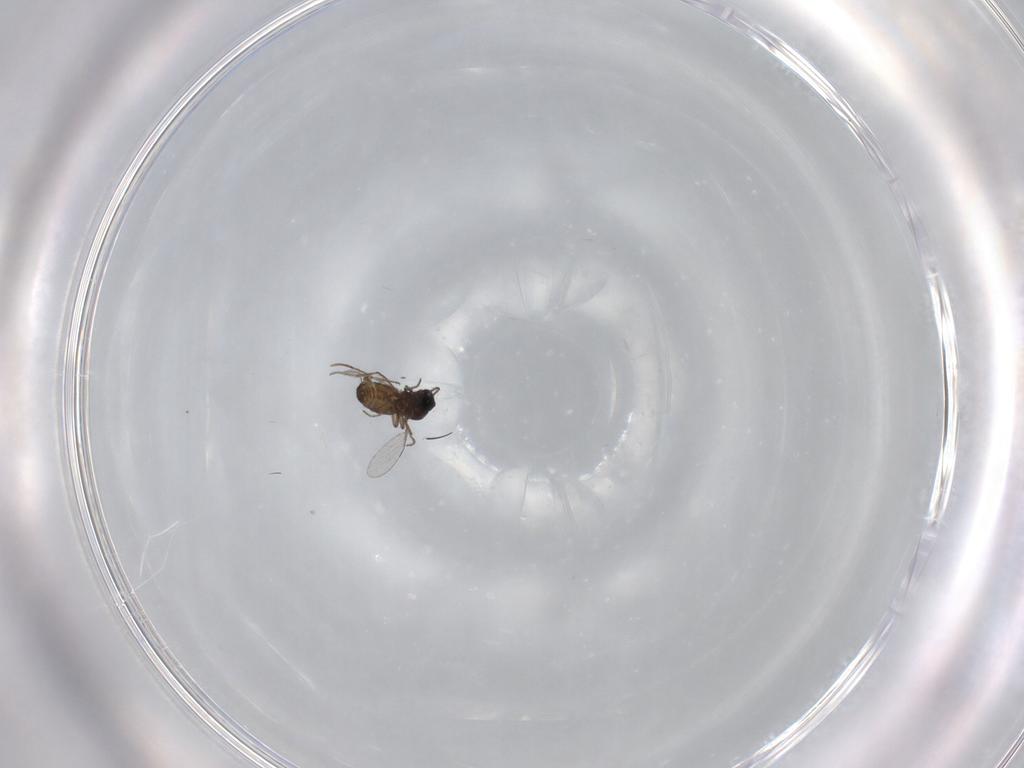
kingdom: Animalia
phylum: Arthropoda
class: Insecta
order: Diptera
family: Ceratopogonidae
